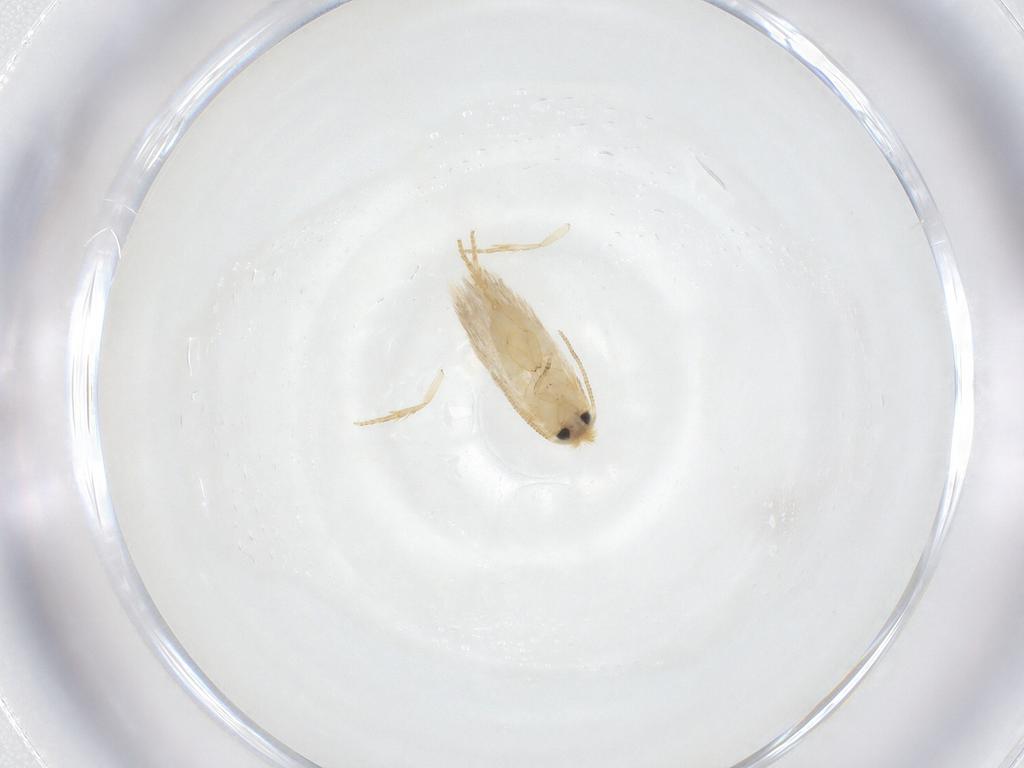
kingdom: Animalia
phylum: Arthropoda
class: Insecta
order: Lepidoptera
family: Nepticulidae
